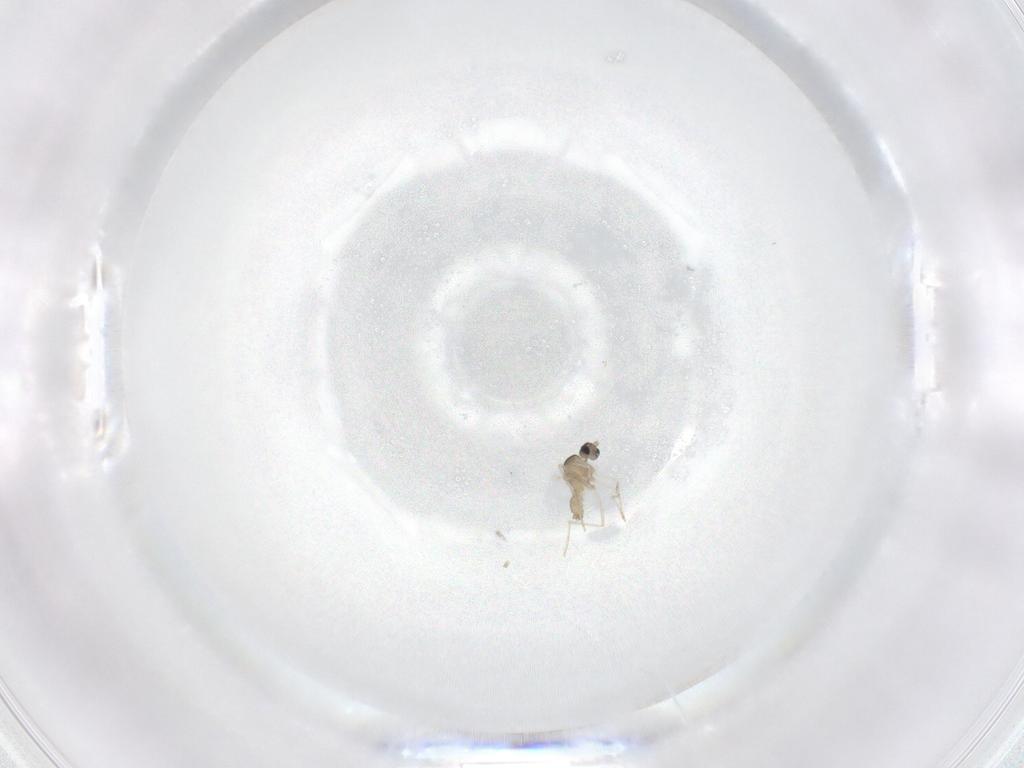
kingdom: Animalia
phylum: Arthropoda
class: Insecta
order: Diptera
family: Cecidomyiidae
